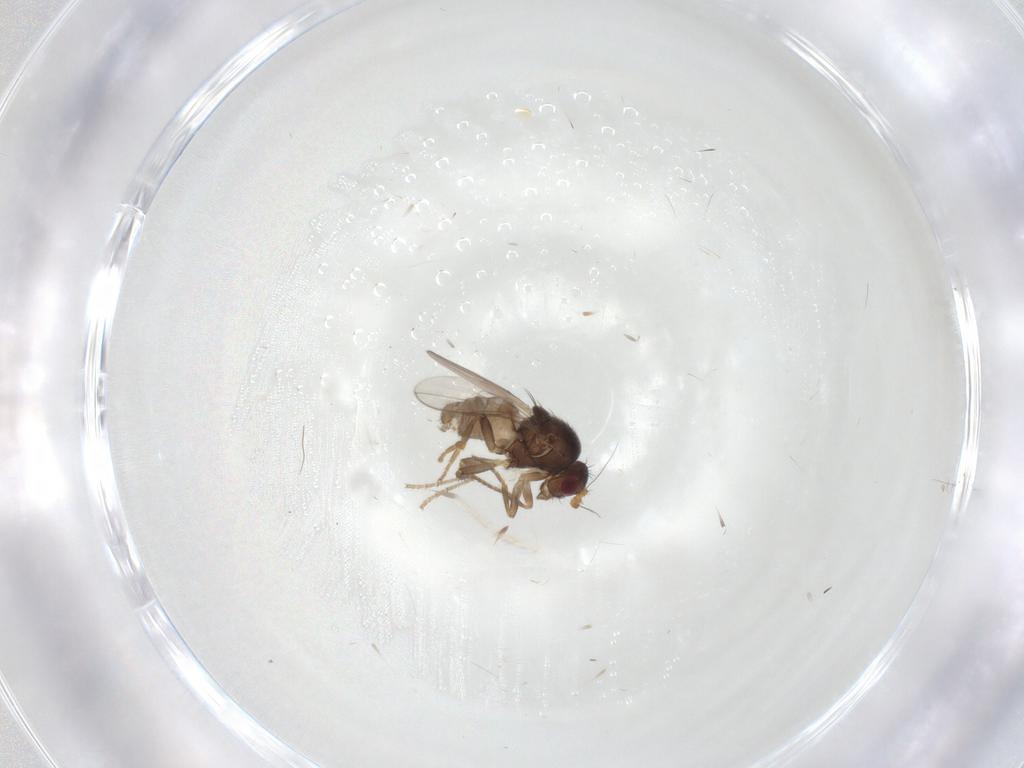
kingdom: Animalia
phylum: Arthropoda
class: Insecta
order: Diptera
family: Sphaeroceridae
